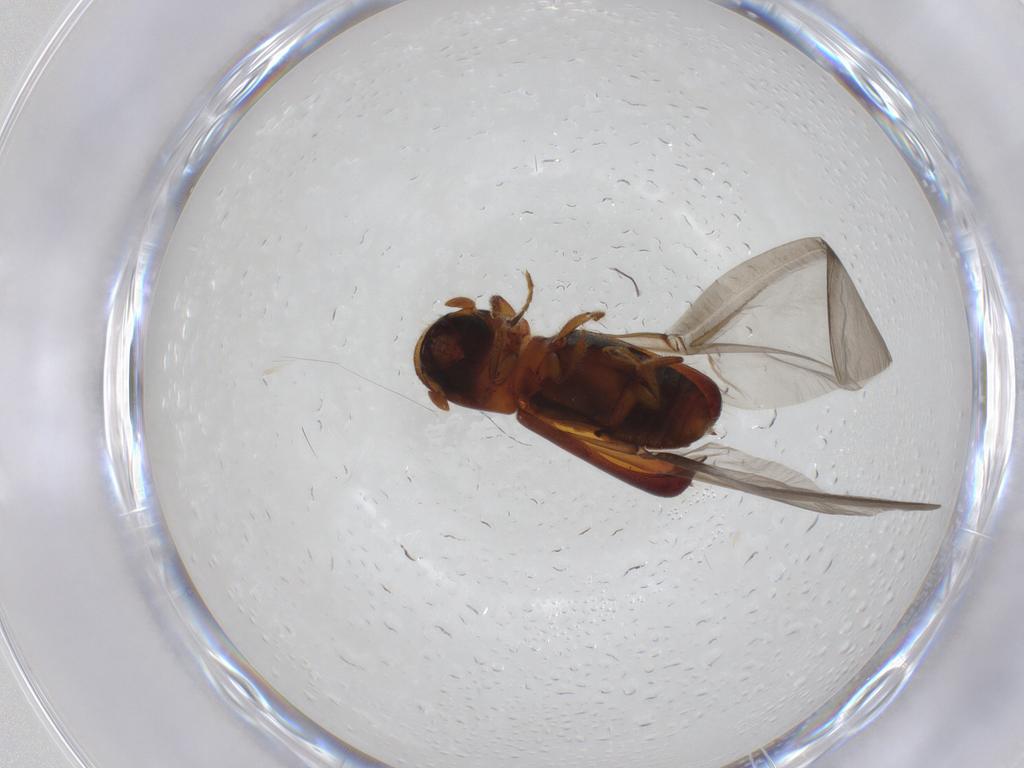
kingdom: Animalia
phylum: Arthropoda
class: Insecta
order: Coleoptera
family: Curculionidae
